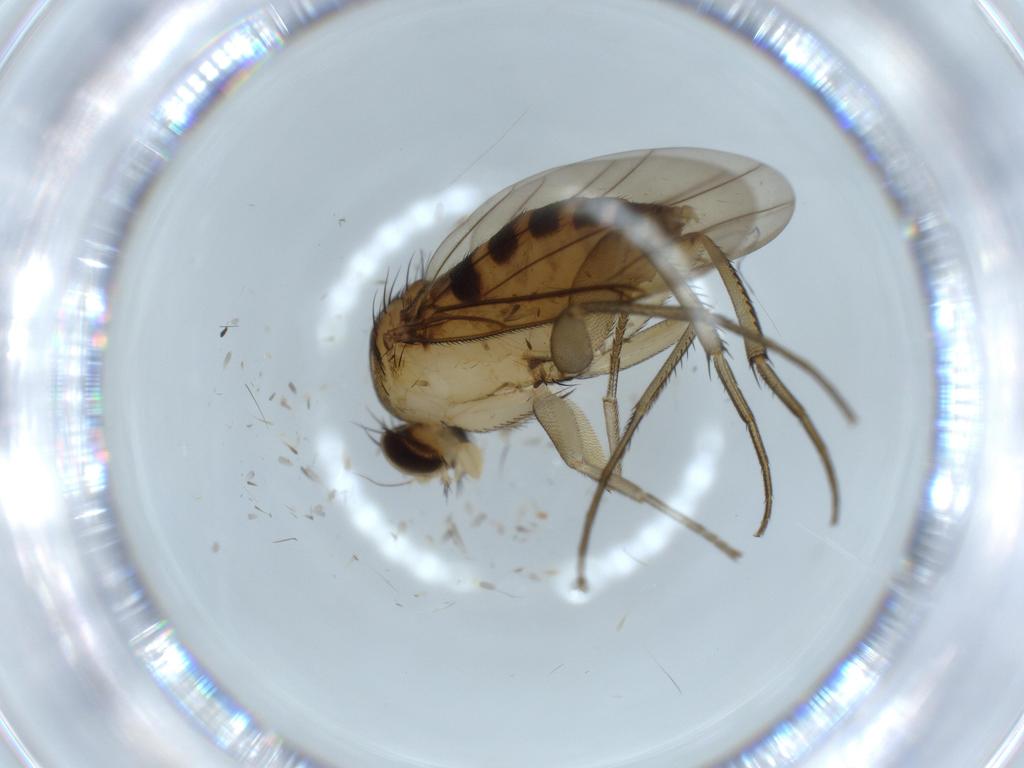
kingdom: Animalia
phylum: Arthropoda
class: Insecta
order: Diptera
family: Phoridae
